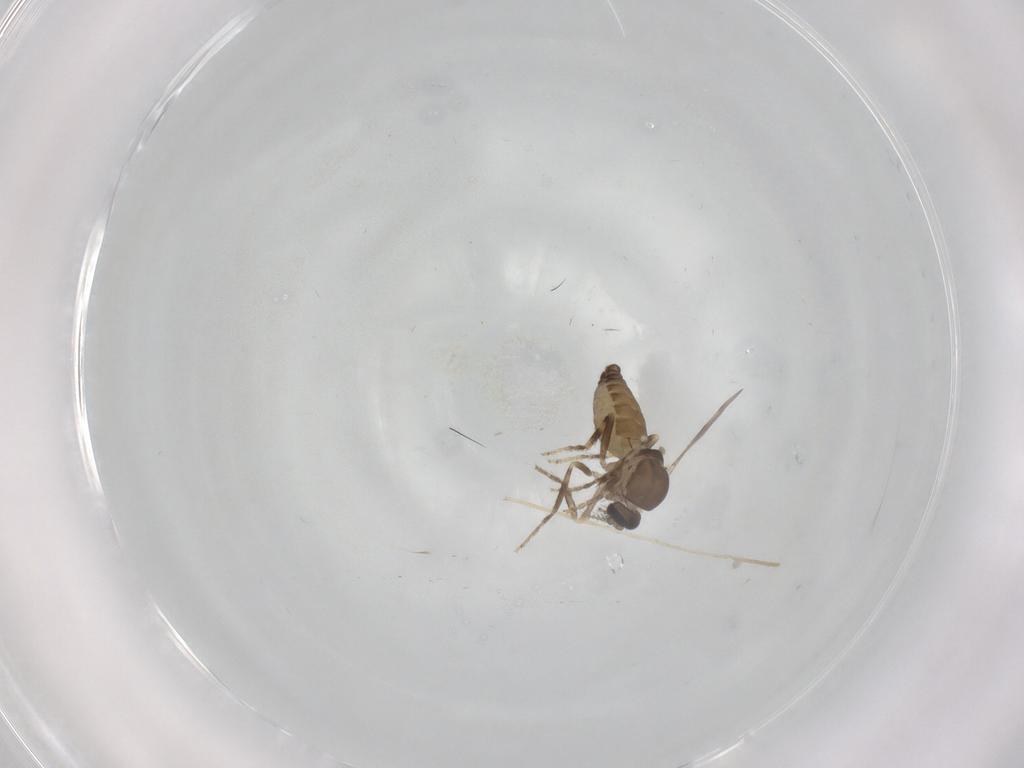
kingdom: Animalia
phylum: Arthropoda
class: Insecta
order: Diptera
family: Ceratopogonidae
